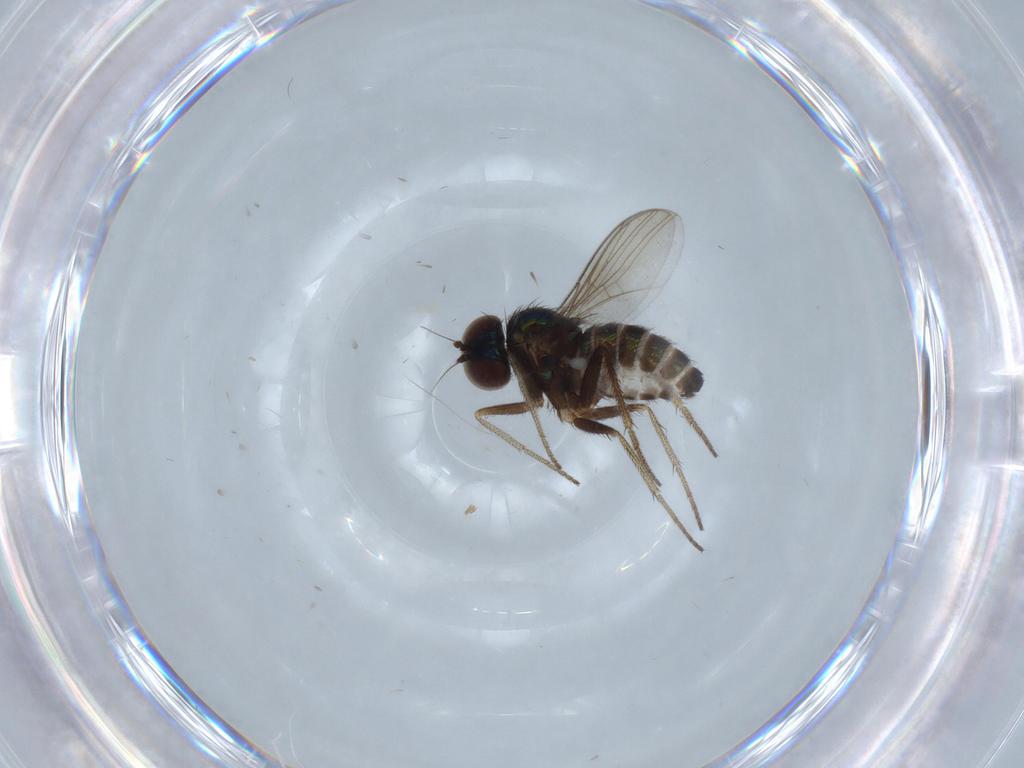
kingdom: Animalia
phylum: Arthropoda
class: Insecta
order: Diptera
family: Dolichopodidae
